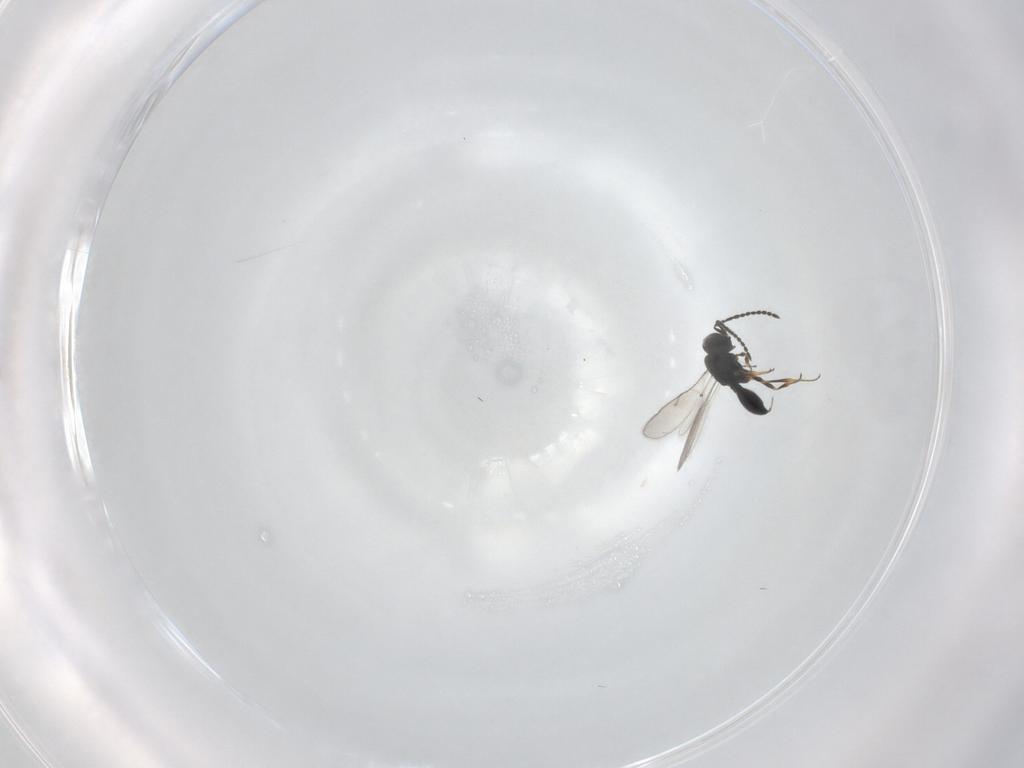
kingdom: Animalia
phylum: Arthropoda
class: Insecta
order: Hymenoptera
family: Scelionidae
